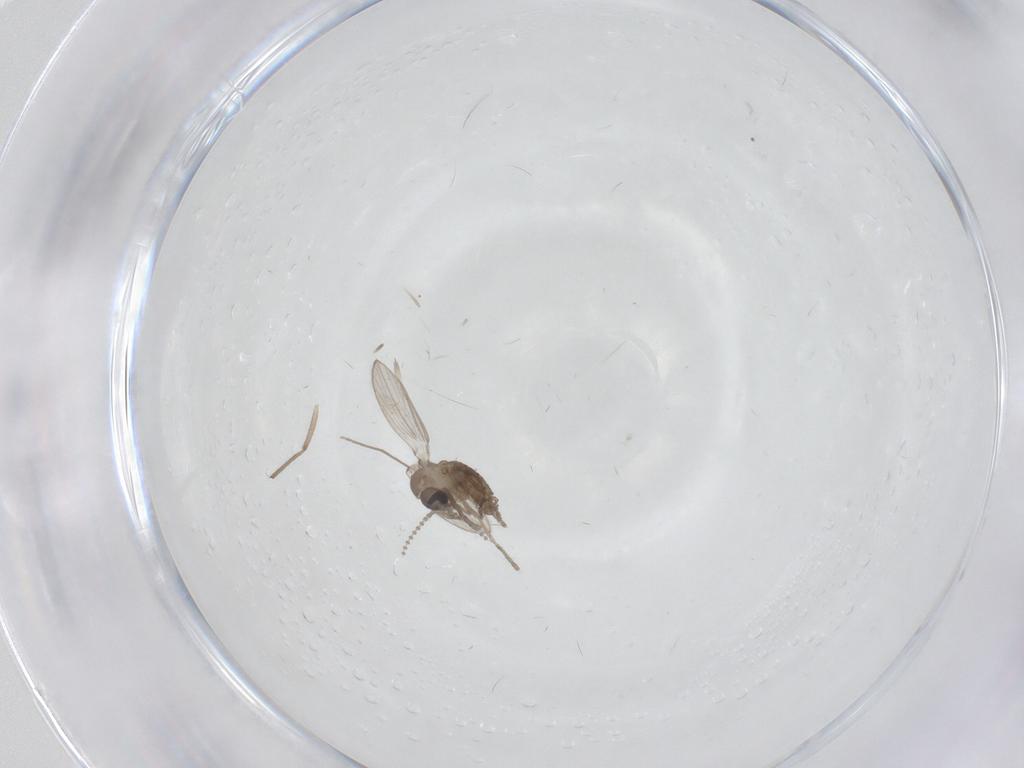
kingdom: Animalia
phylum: Arthropoda
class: Insecta
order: Diptera
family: Psychodidae
